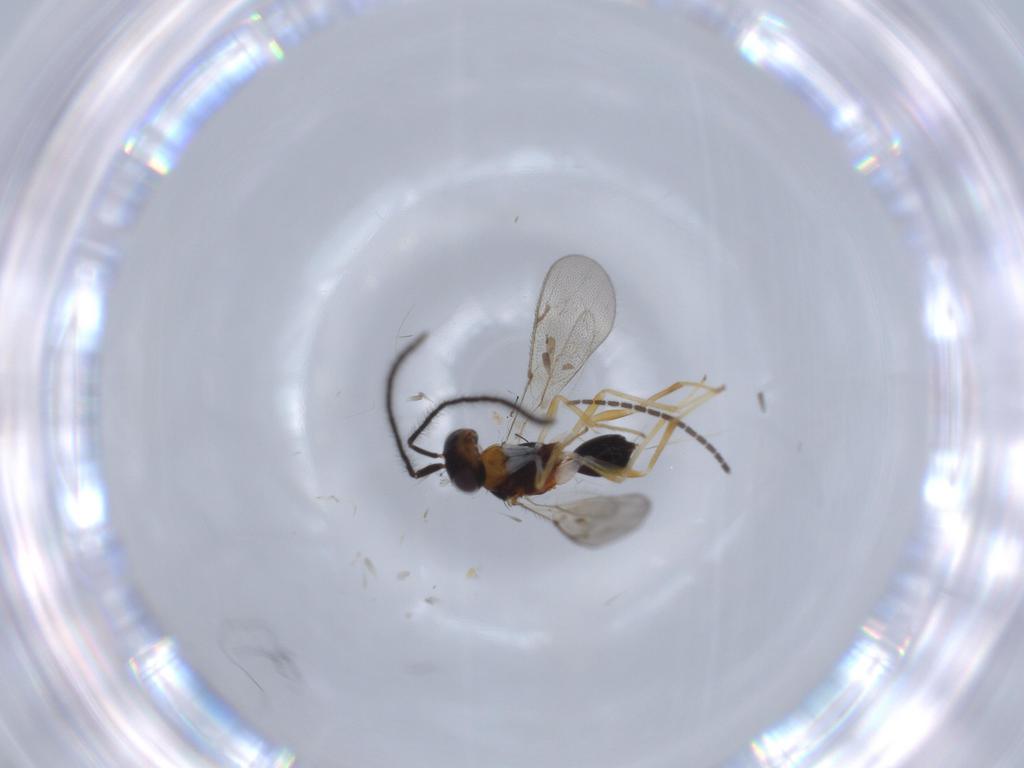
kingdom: Animalia
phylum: Arthropoda
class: Insecta
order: Hymenoptera
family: Diparidae
